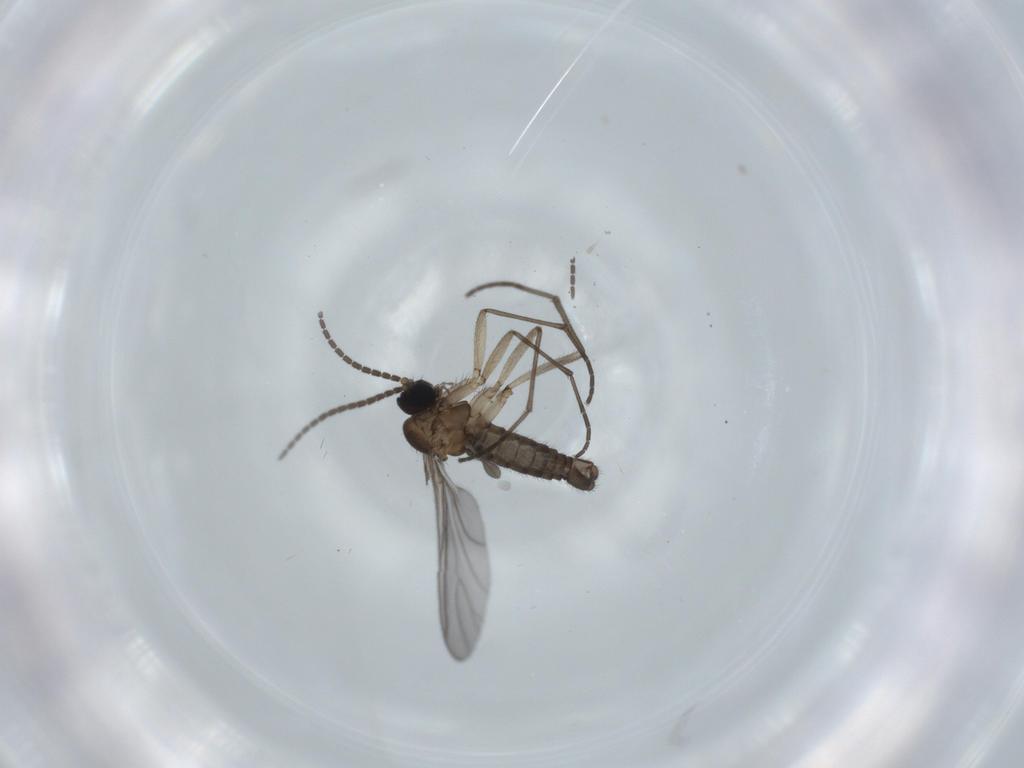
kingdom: Animalia
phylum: Arthropoda
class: Insecta
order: Diptera
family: Sciaridae
